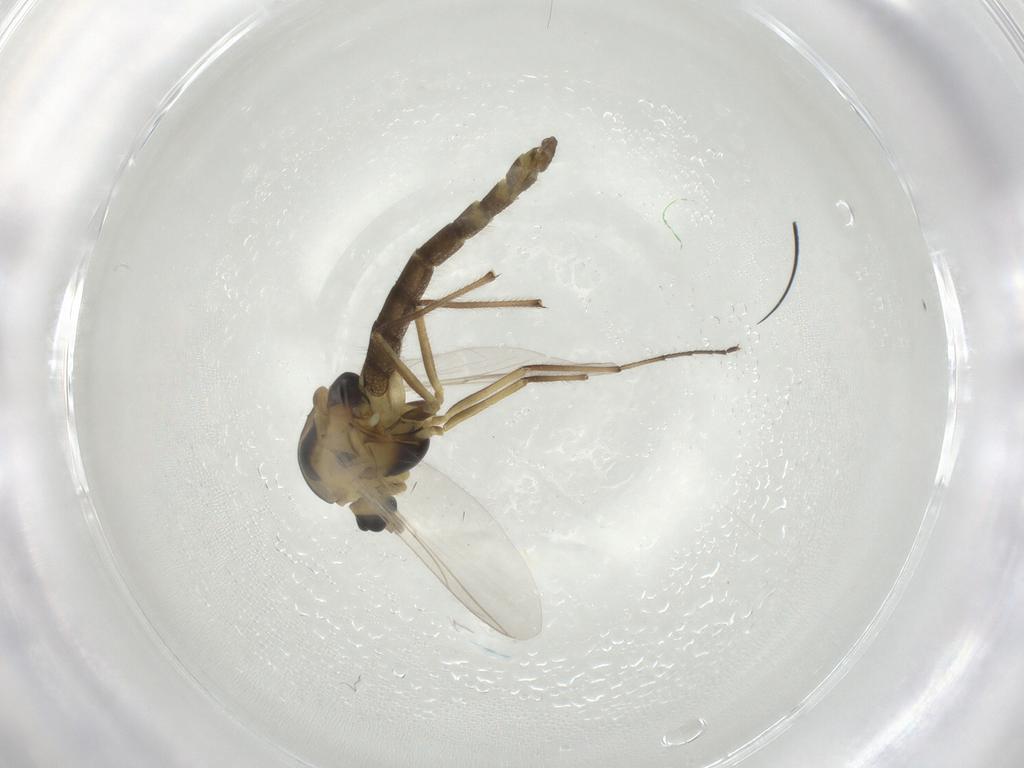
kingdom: Animalia
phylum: Arthropoda
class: Insecta
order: Diptera
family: Chironomidae
